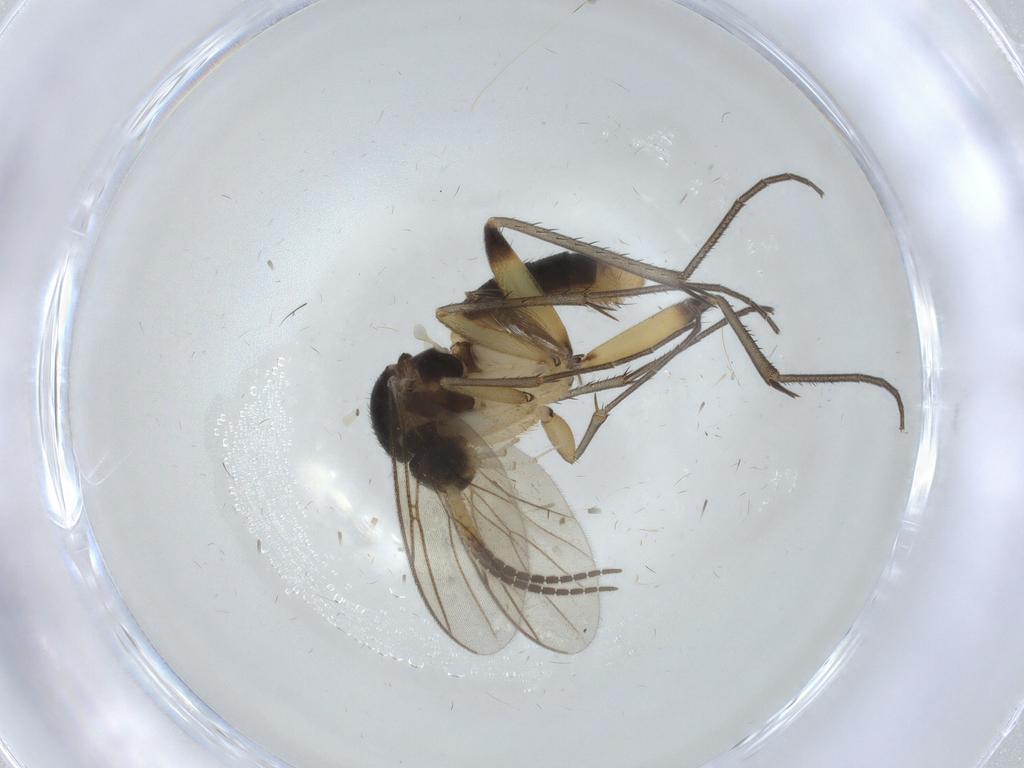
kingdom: Animalia
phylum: Arthropoda
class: Insecta
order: Diptera
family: Mycetophilidae
